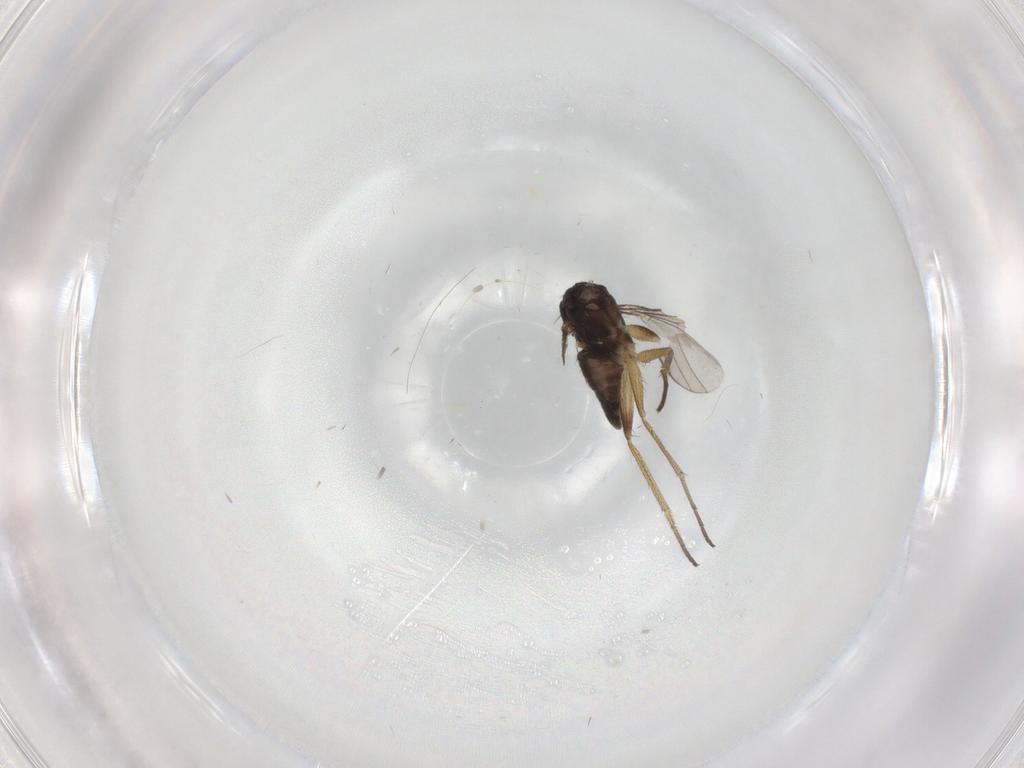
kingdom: Animalia
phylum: Arthropoda
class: Insecta
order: Diptera
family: Dolichopodidae
